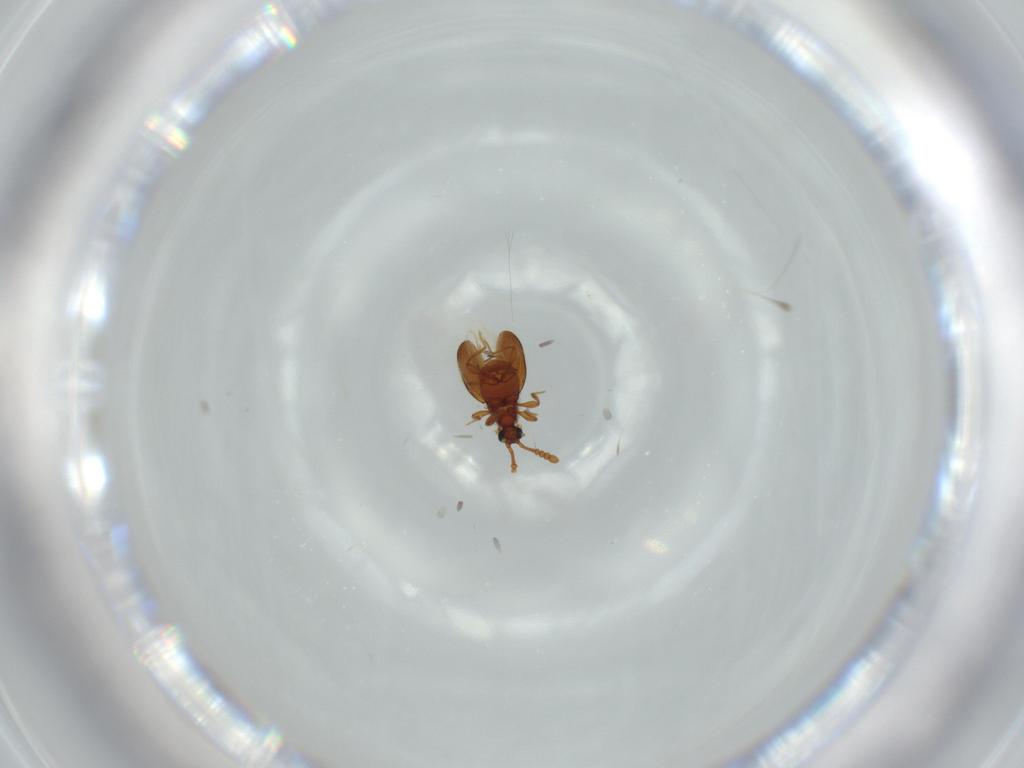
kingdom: Animalia
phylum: Arthropoda
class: Insecta
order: Coleoptera
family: Staphylinidae
